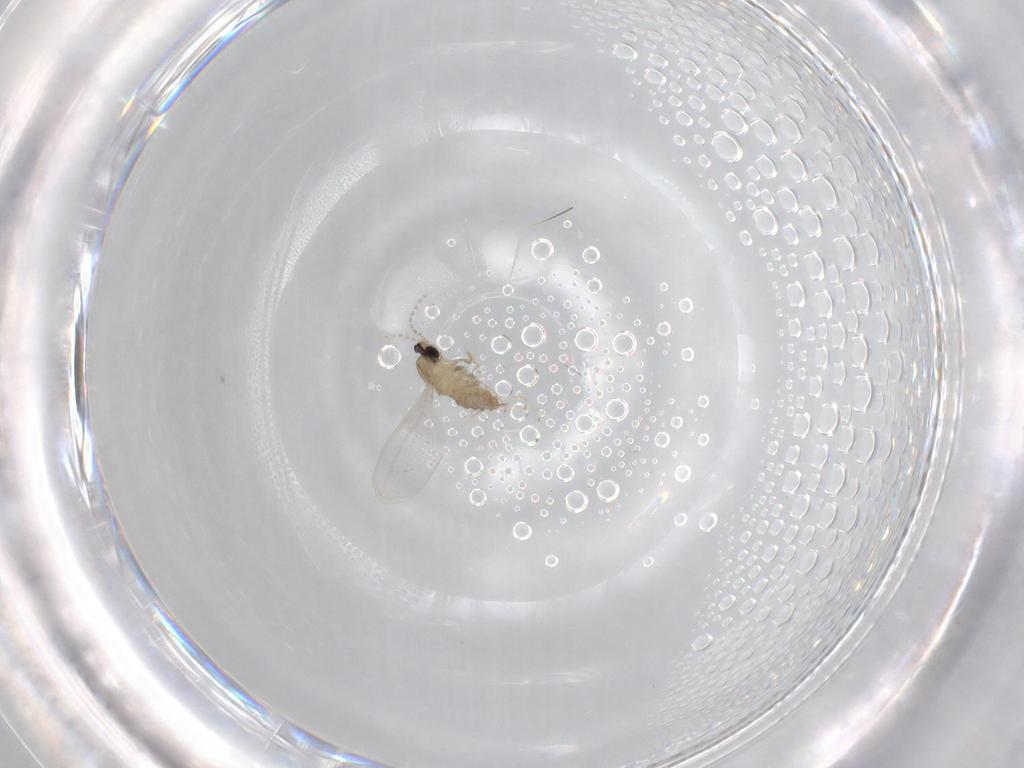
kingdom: Animalia
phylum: Arthropoda
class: Insecta
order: Diptera
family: Cecidomyiidae
